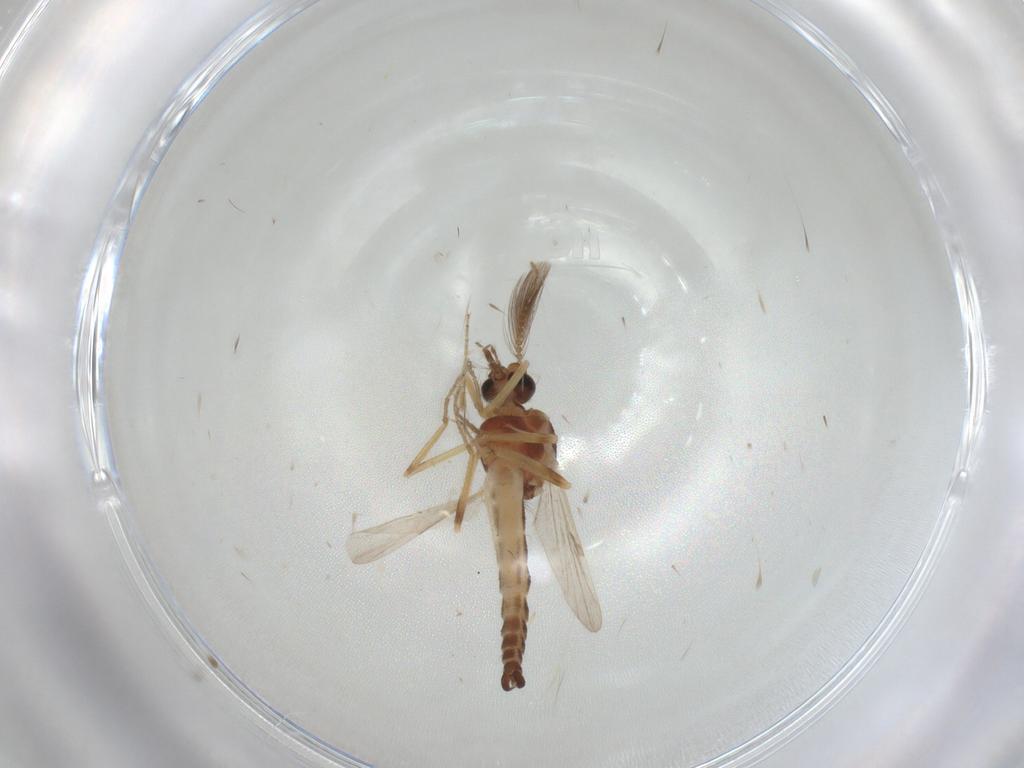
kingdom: Animalia
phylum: Arthropoda
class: Insecta
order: Diptera
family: Cecidomyiidae
